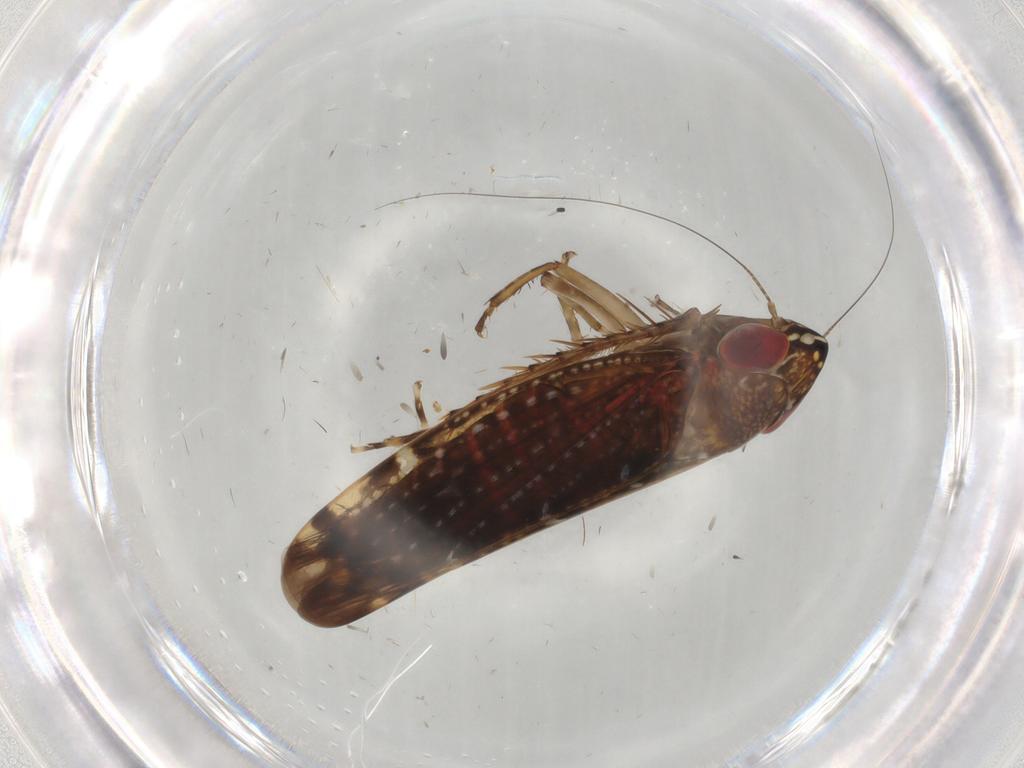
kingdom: Animalia
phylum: Arthropoda
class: Insecta
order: Hemiptera
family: Cicadellidae
